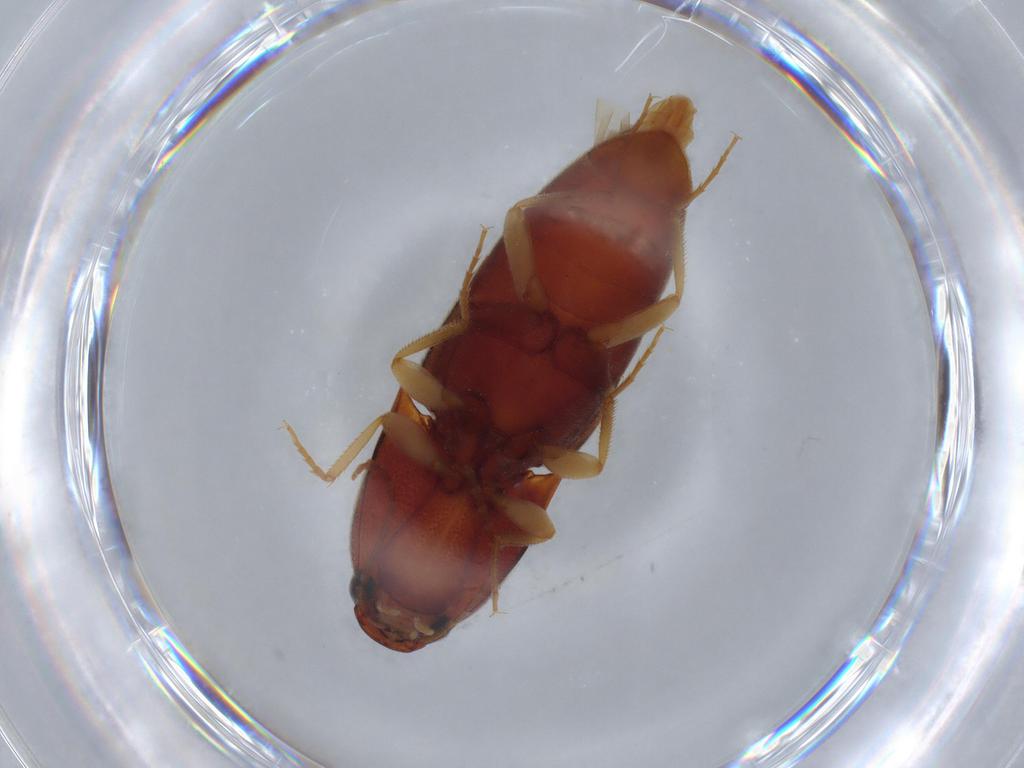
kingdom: Animalia
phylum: Arthropoda
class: Insecta
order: Coleoptera
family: Elateridae
